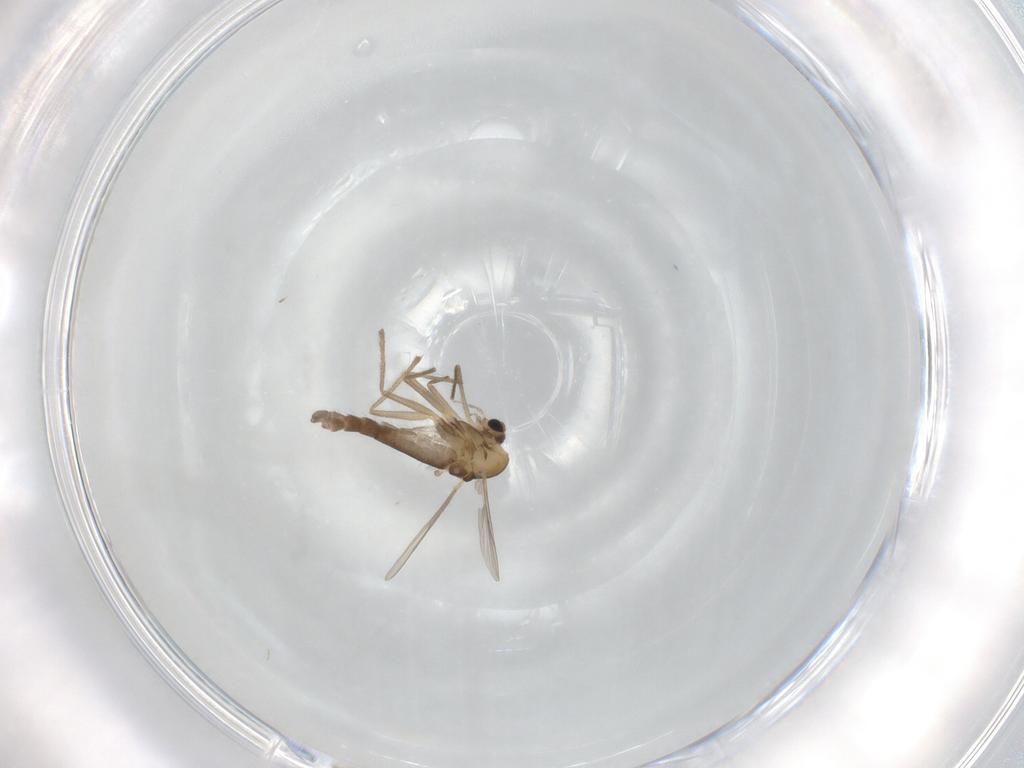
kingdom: Animalia
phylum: Arthropoda
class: Insecta
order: Diptera
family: Chironomidae
